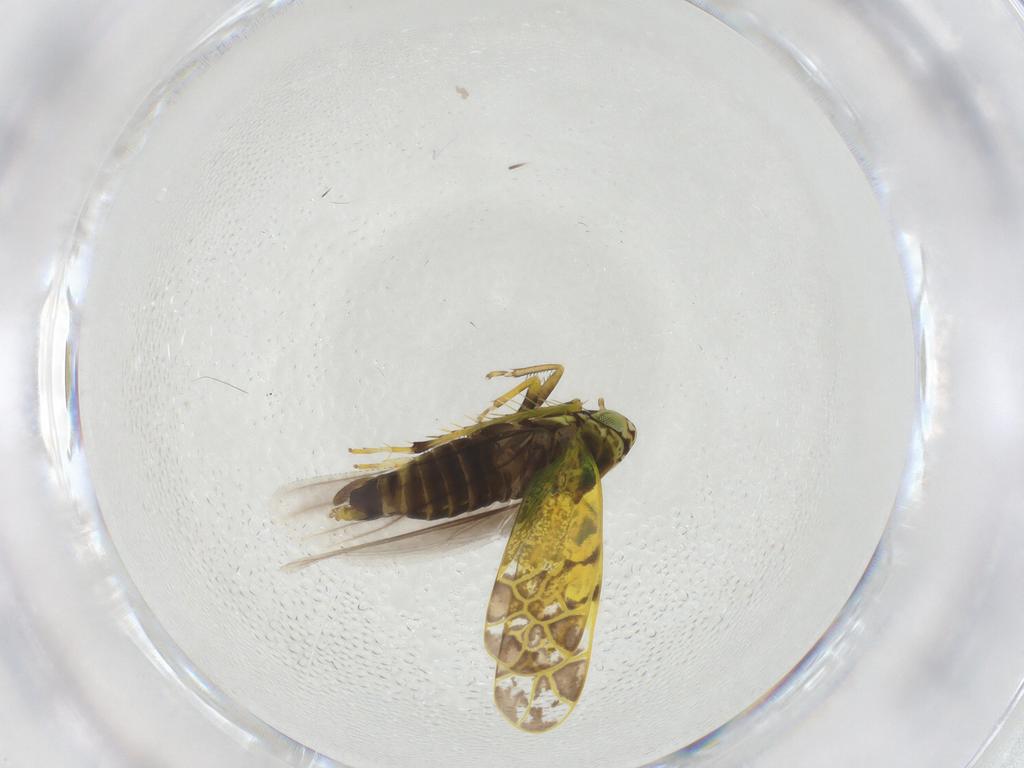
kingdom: Animalia
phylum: Arthropoda
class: Insecta
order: Hemiptera
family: Cicadellidae
